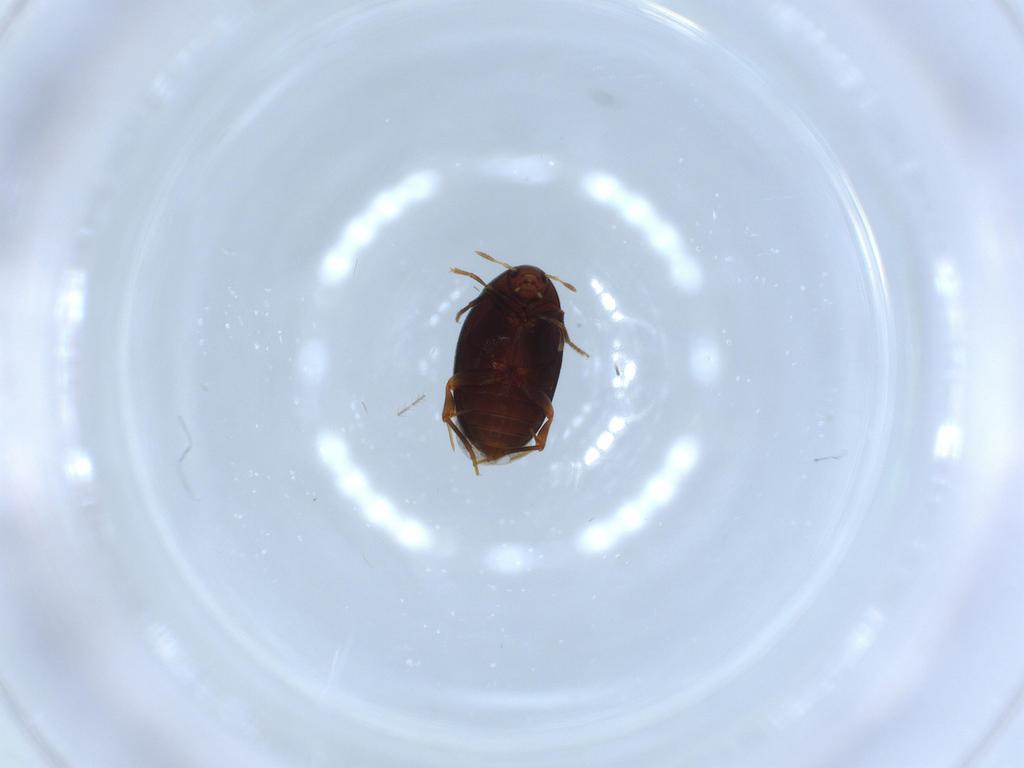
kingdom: Animalia
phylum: Arthropoda
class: Insecta
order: Coleoptera
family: Melandryidae
